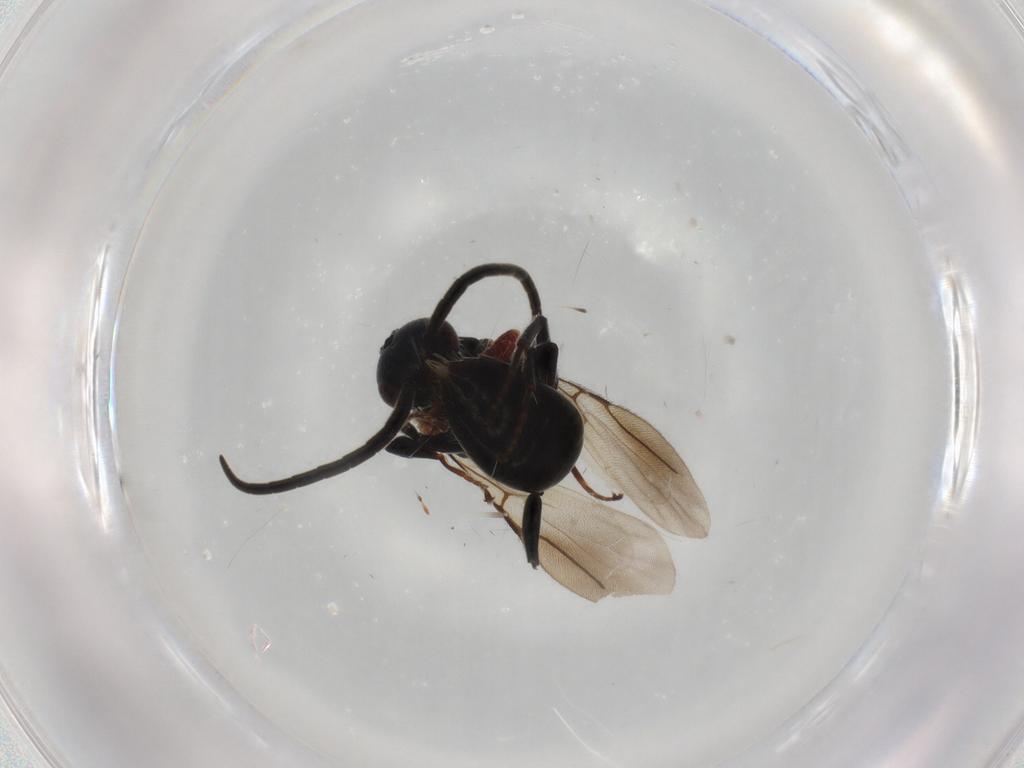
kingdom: Animalia
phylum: Arthropoda
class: Insecta
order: Hymenoptera
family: Bethylidae
